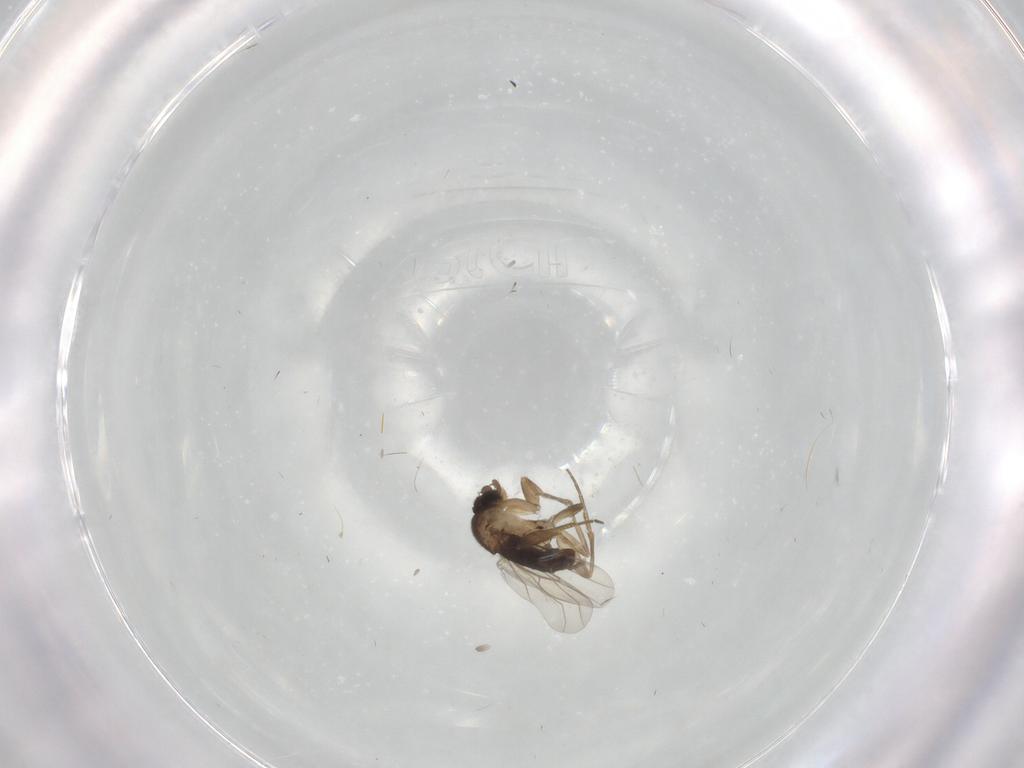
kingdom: Animalia
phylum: Arthropoda
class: Insecta
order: Diptera
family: Phoridae
